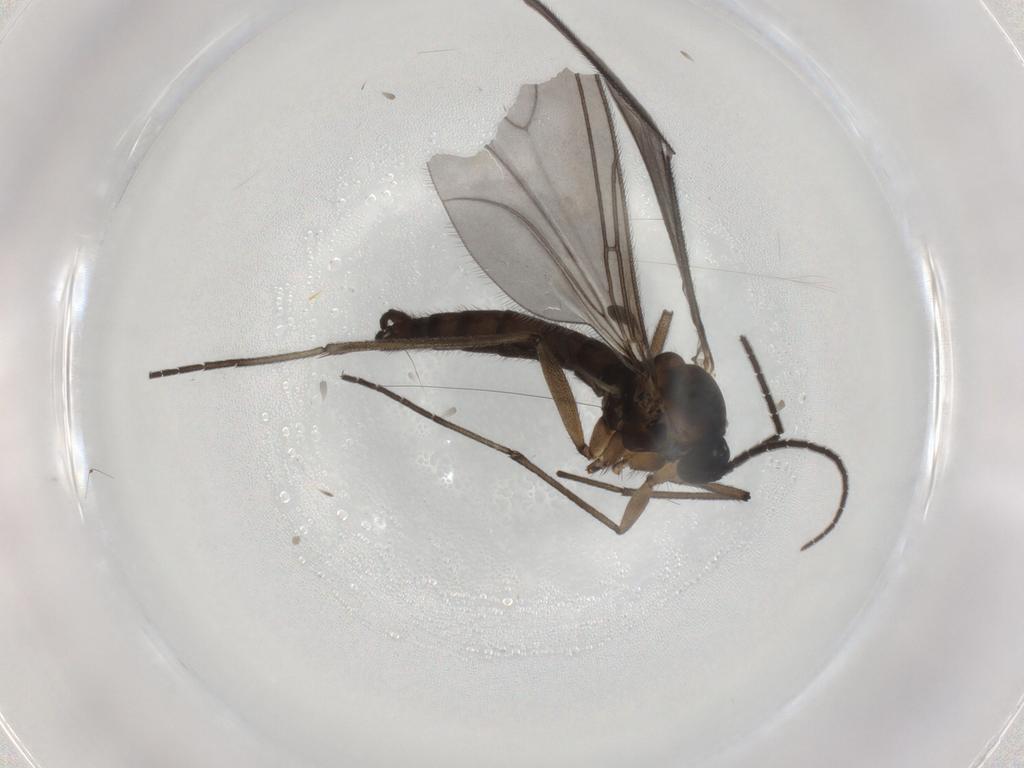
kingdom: Animalia
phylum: Arthropoda
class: Insecta
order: Diptera
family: Sciaridae
